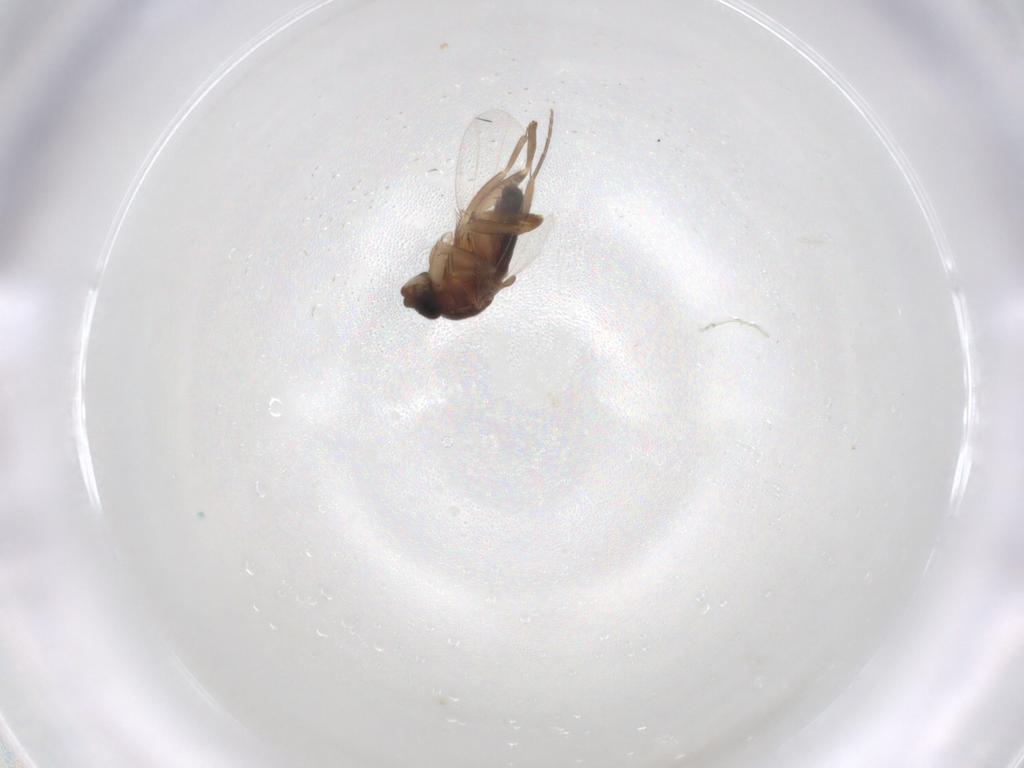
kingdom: Animalia
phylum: Arthropoda
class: Insecta
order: Diptera
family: Phoridae
